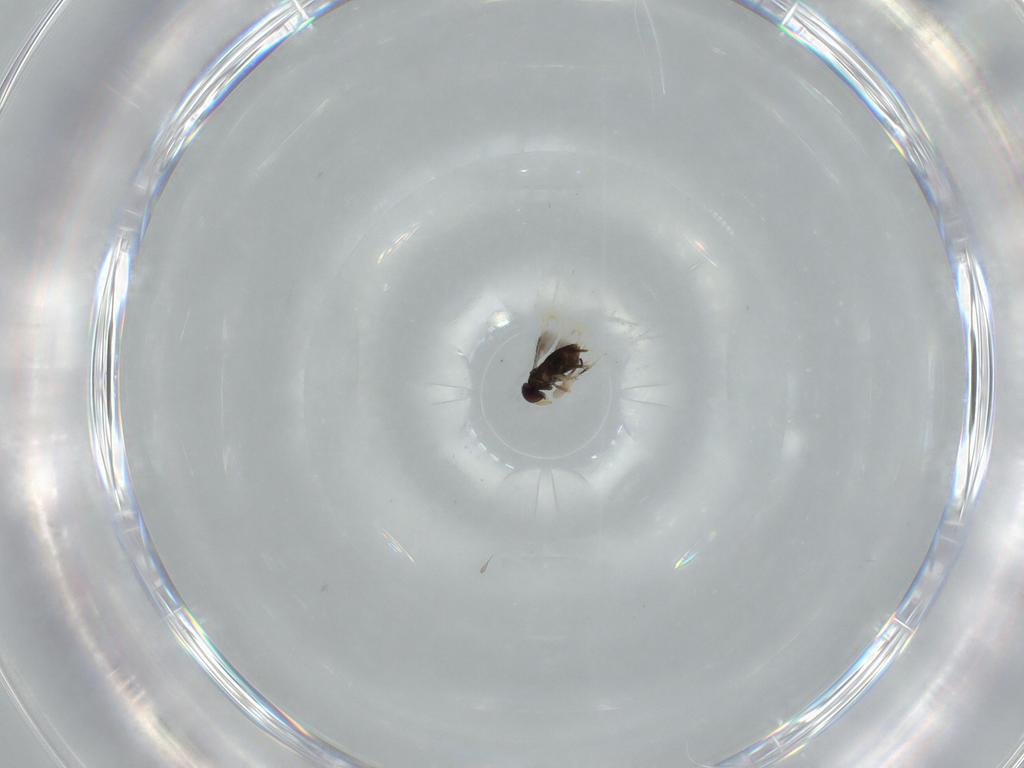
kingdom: Animalia
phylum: Arthropoda
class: Insecta
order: Hymenoptera
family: Signiphoridae
